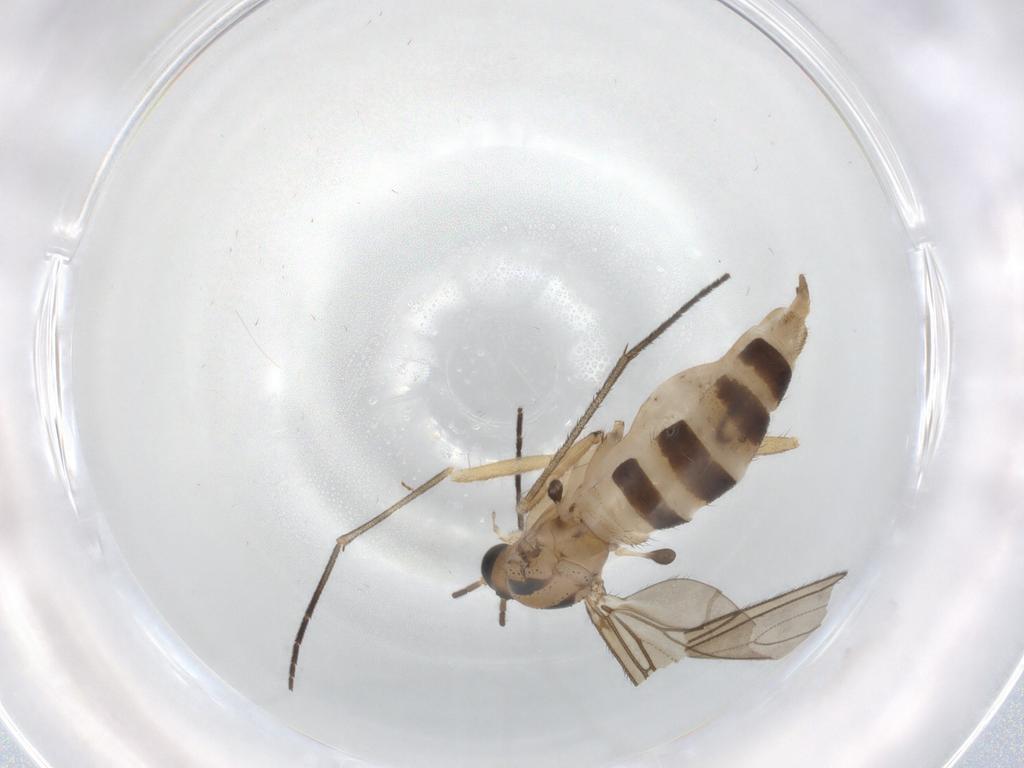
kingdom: Animalia
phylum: Arthropoda
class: Insecta
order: Diptera
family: Sciaridae
